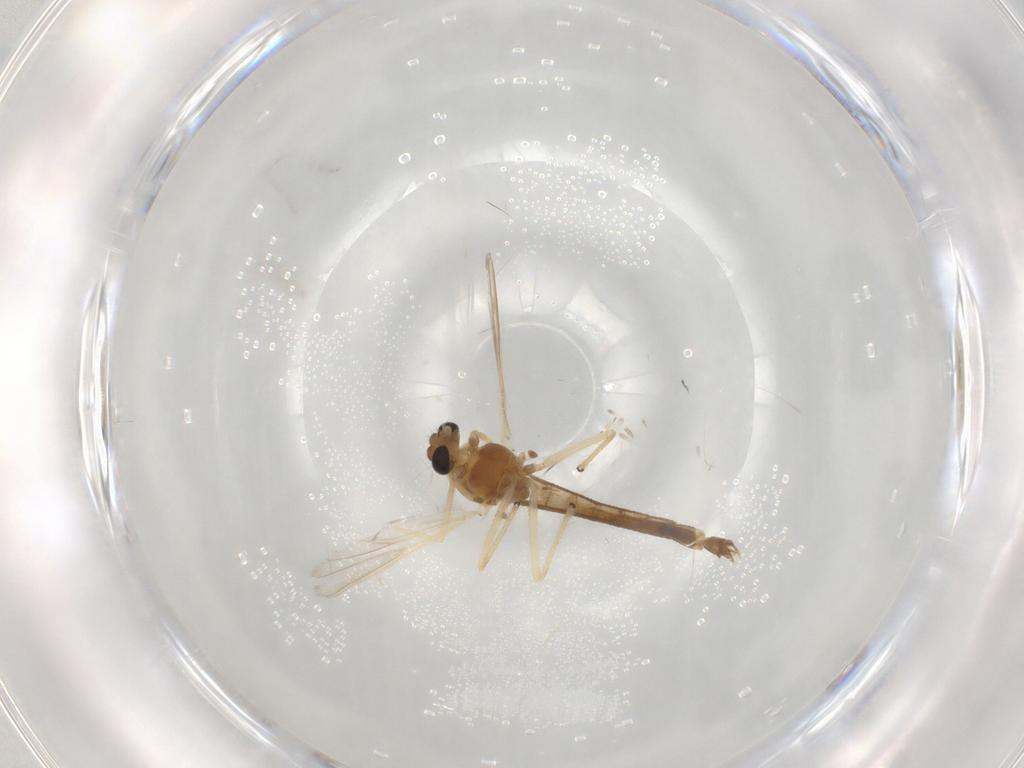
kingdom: Animalia
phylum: Arthropoda
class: Insecta
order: Diptera
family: Chironomidae
